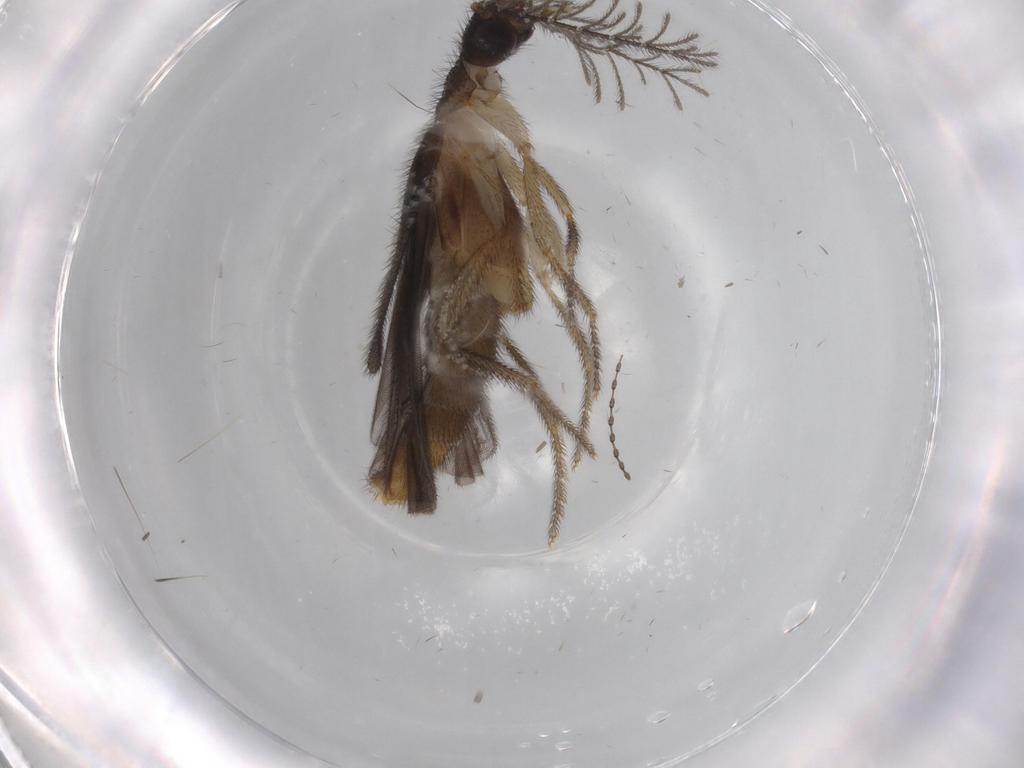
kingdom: Animalia
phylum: Arthropoda
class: Insecta
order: Coleoptera
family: Phengodidae
